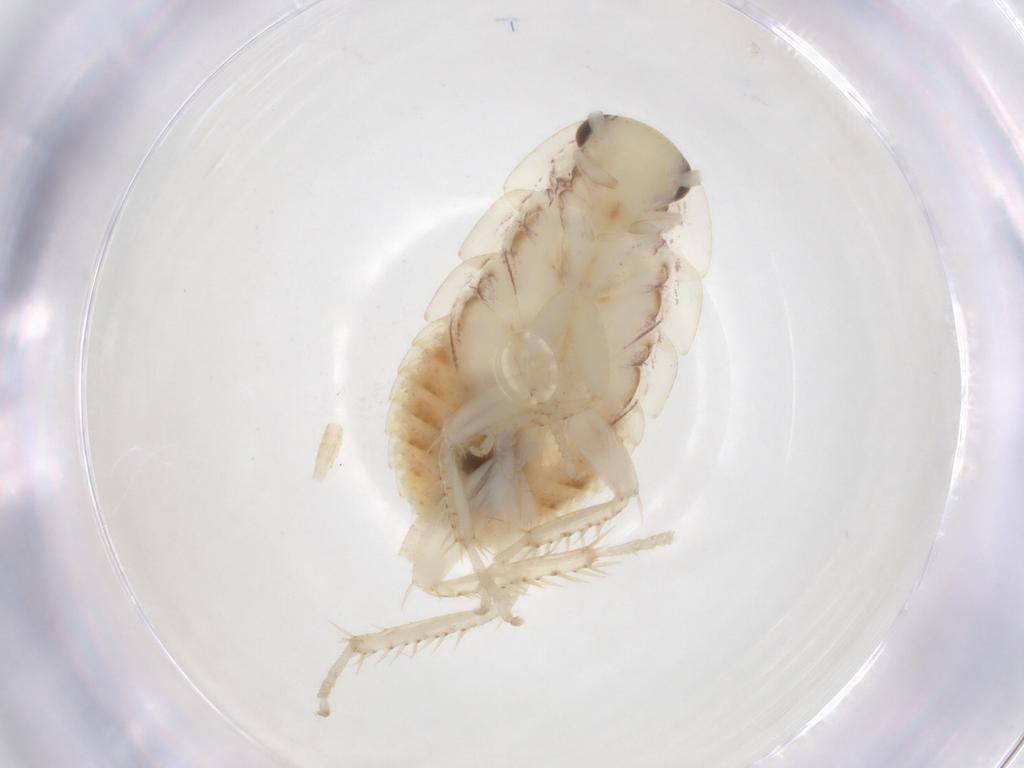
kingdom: Animalia
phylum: Arthropoda
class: Insecta
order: Blattodea
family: Blaberidae
